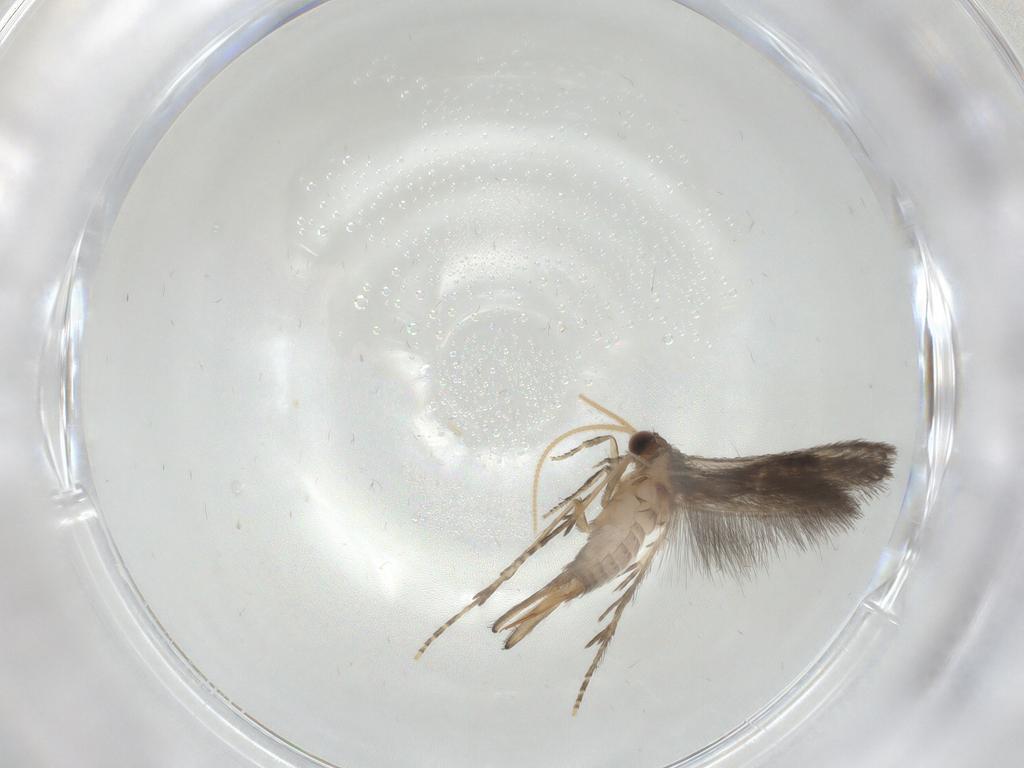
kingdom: Animalia
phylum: Arthropoda
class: Insecta
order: Trichoptera
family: Hydroptilidae
